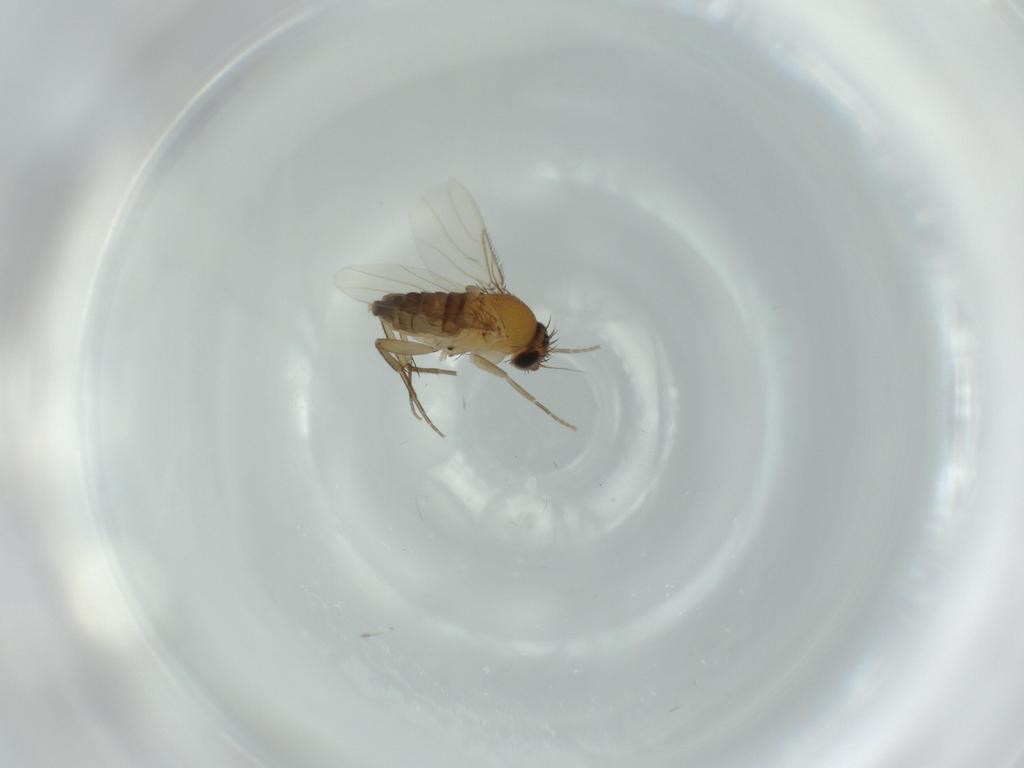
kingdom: Animalia
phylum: Arthropoda
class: Insecta
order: Diptera
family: Phoridae
